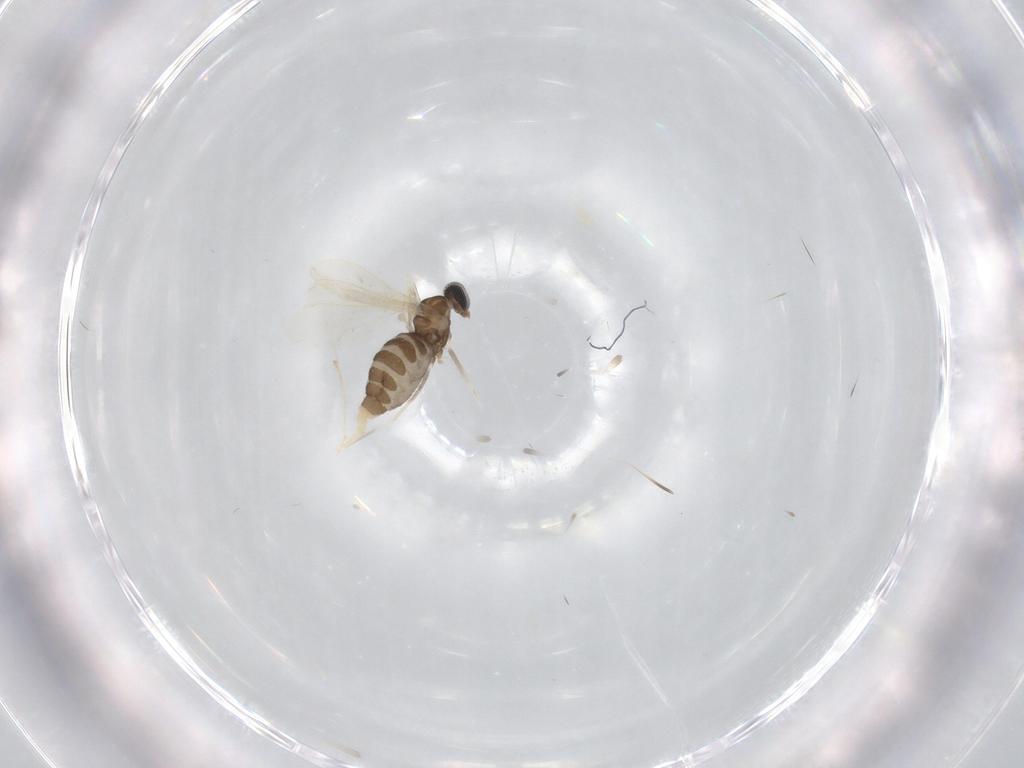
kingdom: Animalia
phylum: Arthropoda
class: Insecta
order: Diptera
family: Cecidomyiidae
